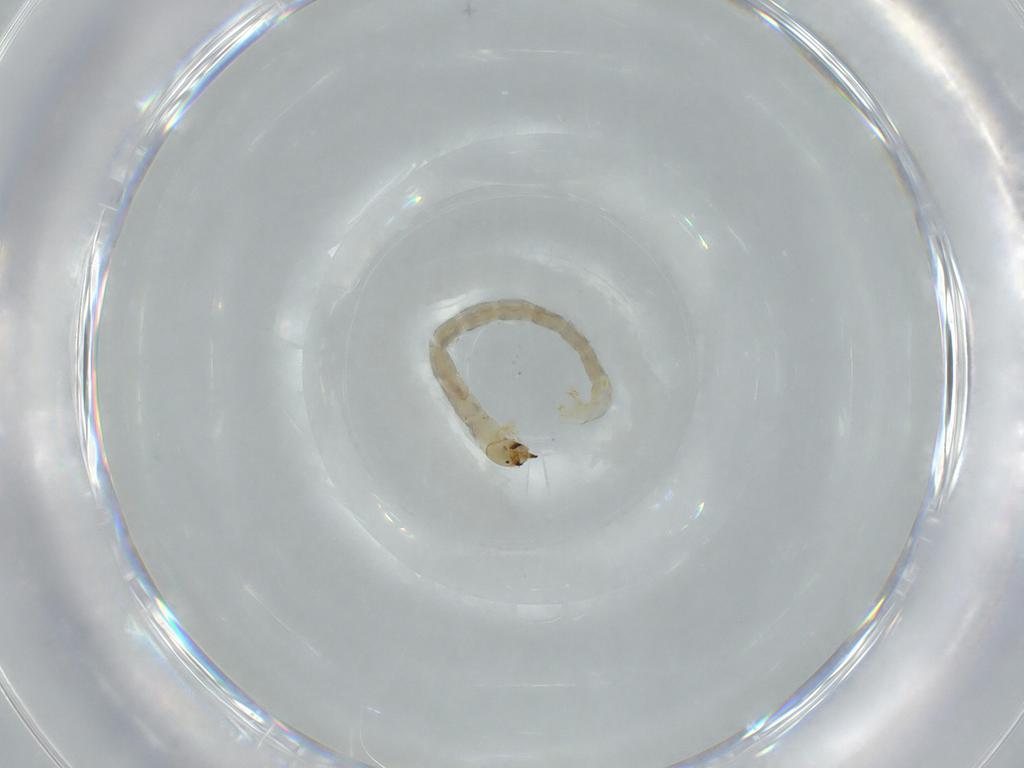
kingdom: Animalia
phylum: Arthropoda
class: Insecta
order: Diptera
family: Chironomidae
